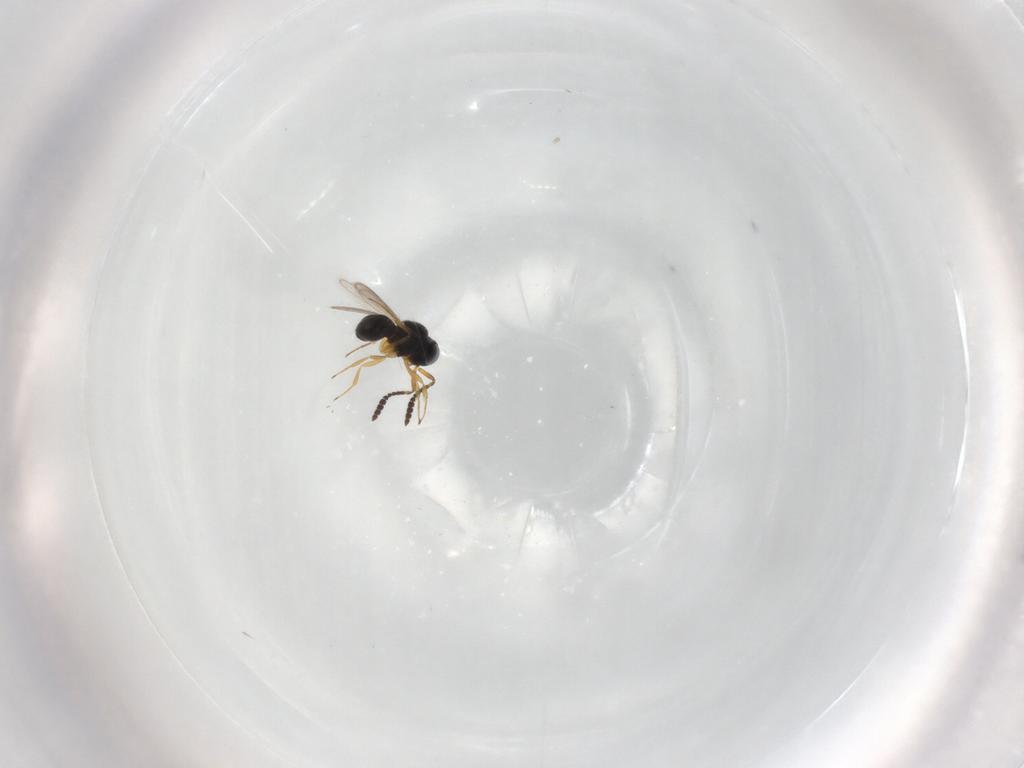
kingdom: Animalia
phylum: Arthropoda
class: Insecta
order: Hymenoptera
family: Scelionidae
